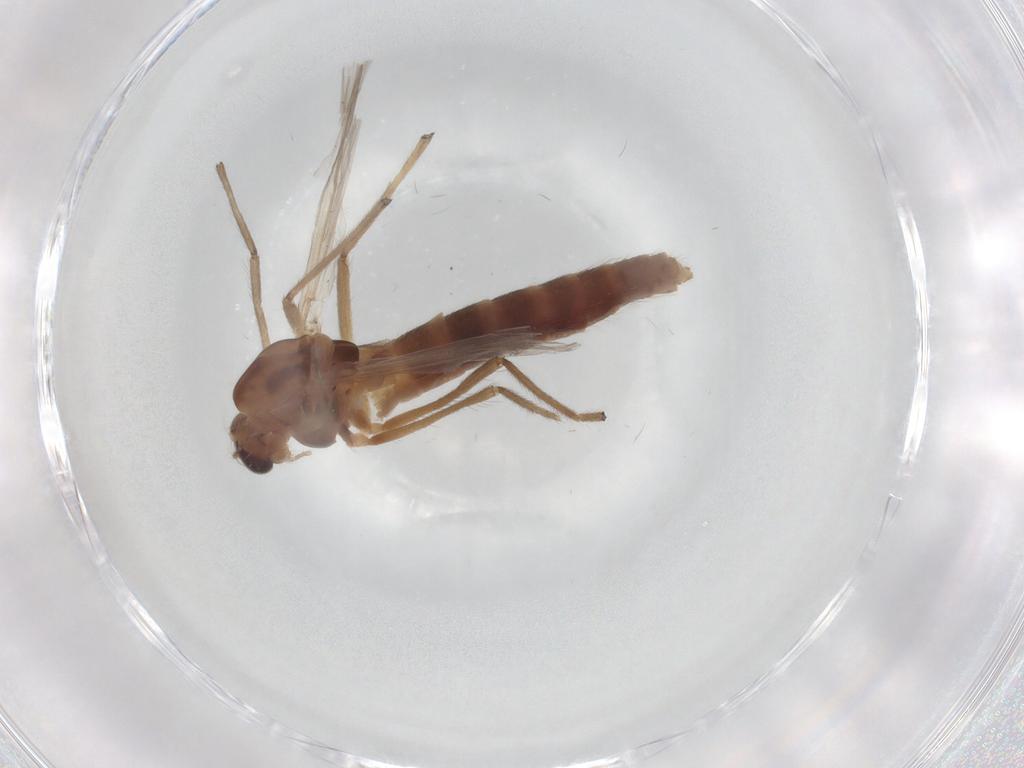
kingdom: Animalia
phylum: Arthropoda
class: Insecta
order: Diptera
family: Chironomidae
